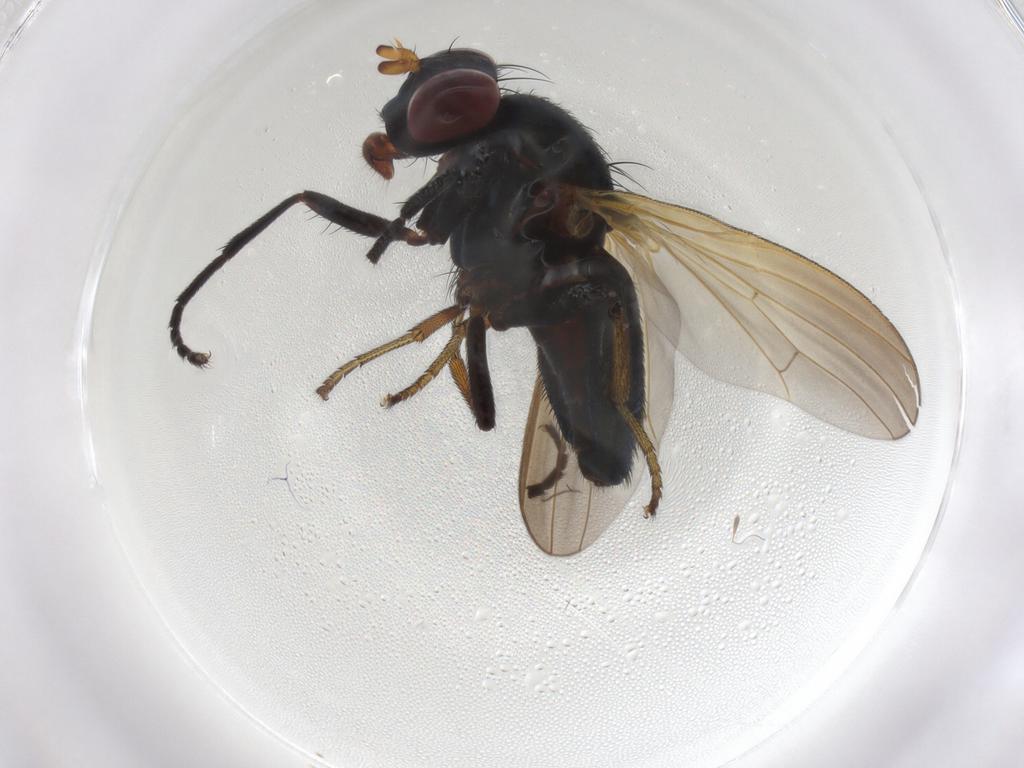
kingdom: Animalia
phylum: Arthropoda
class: Insecta
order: Diptera
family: Lauxaniidae
